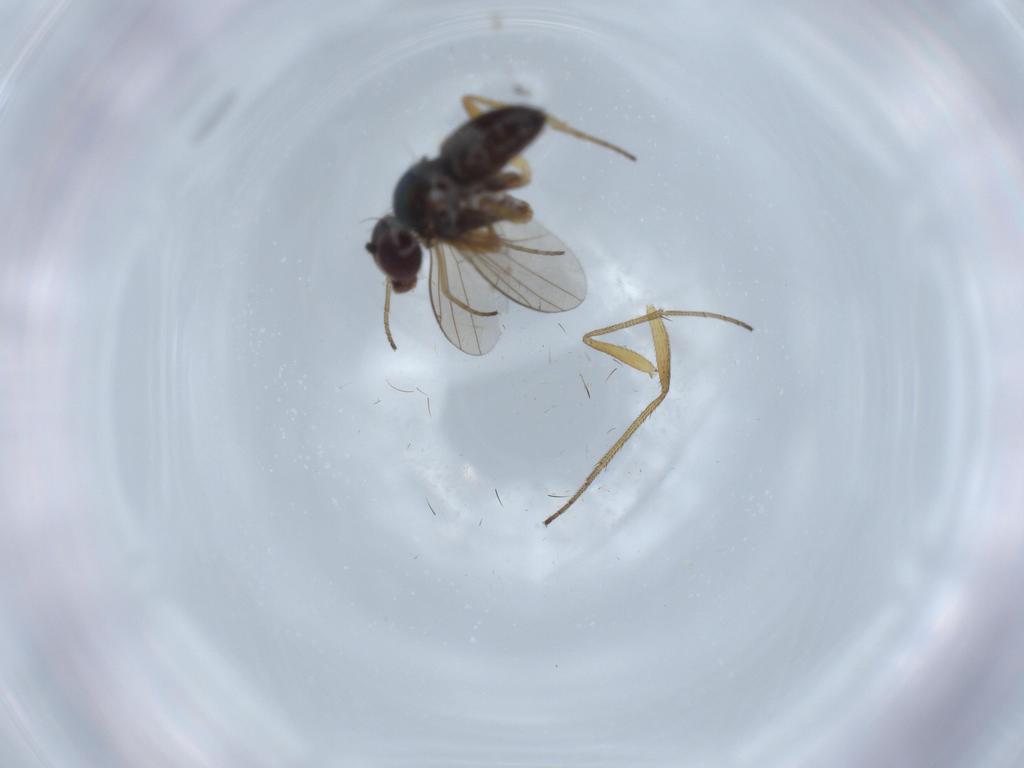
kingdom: Animalia
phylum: Arthropoda
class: Insecta
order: Diptera
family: Dolichopodidae
